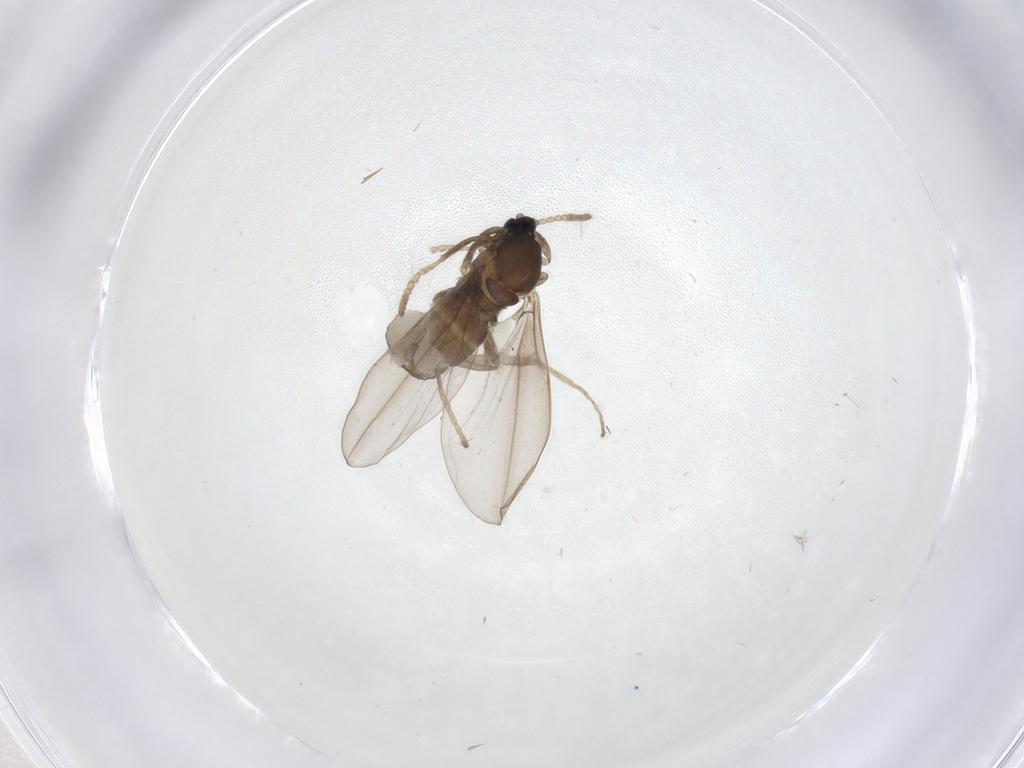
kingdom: Animalia
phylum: Arthropoda
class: Insecta
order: Diptera
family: Cecidomyiidae
